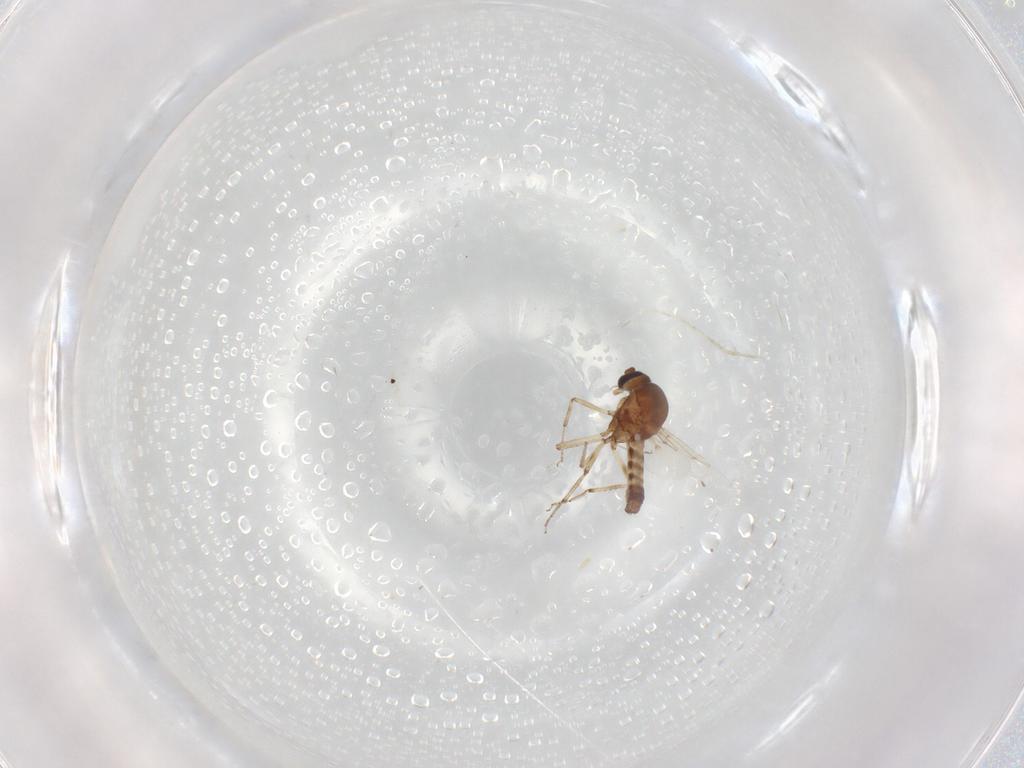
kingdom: Animalia
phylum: Arthropoda
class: Insecta
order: Diptera
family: Ceratopogonidae
